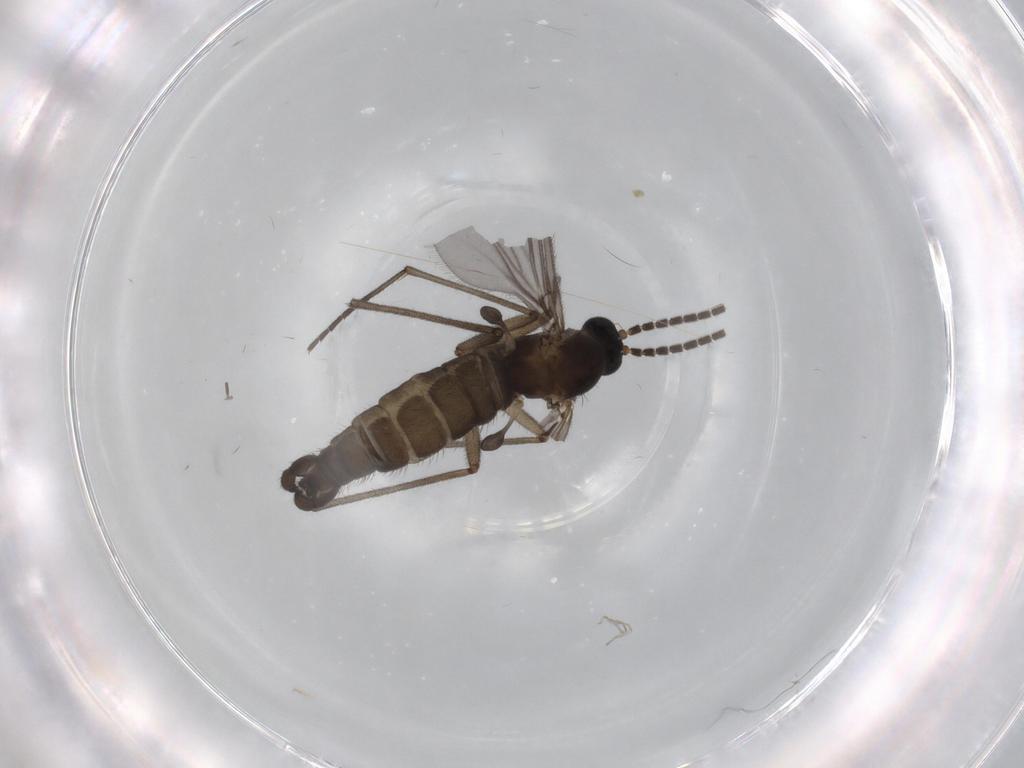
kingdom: Animalia
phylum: Arthropoda
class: Insecta
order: Diptera
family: Sciaridae
